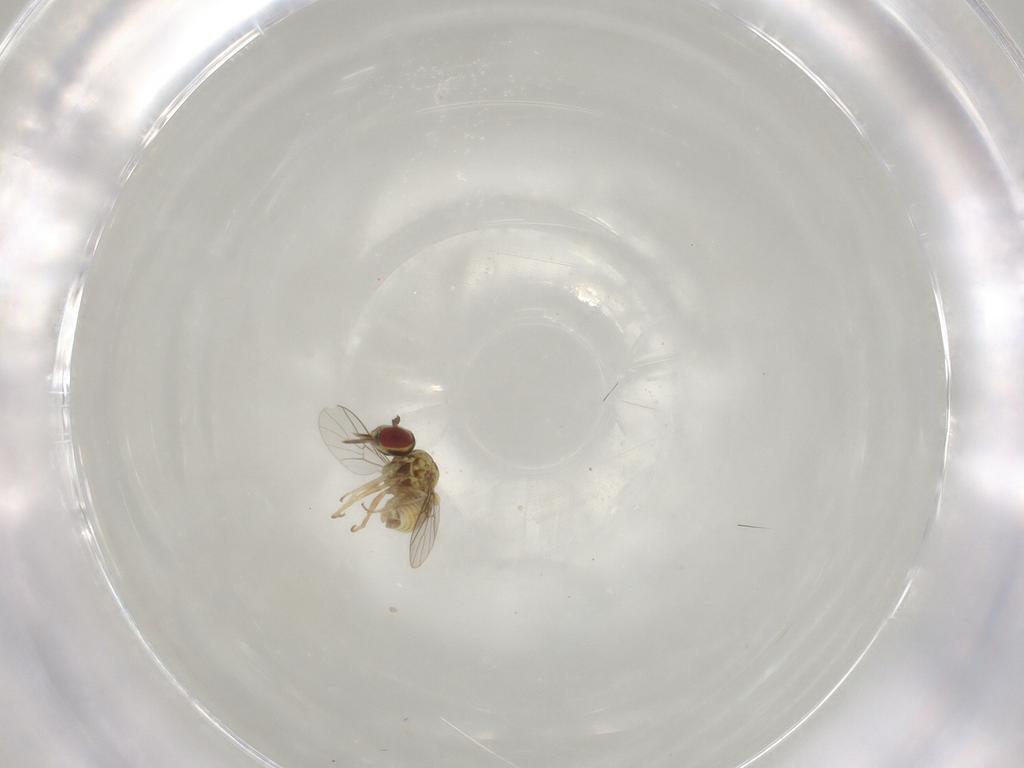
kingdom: Animalia
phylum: Arthropoda
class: Insecta
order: Diptera
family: Mythicomyiidae
